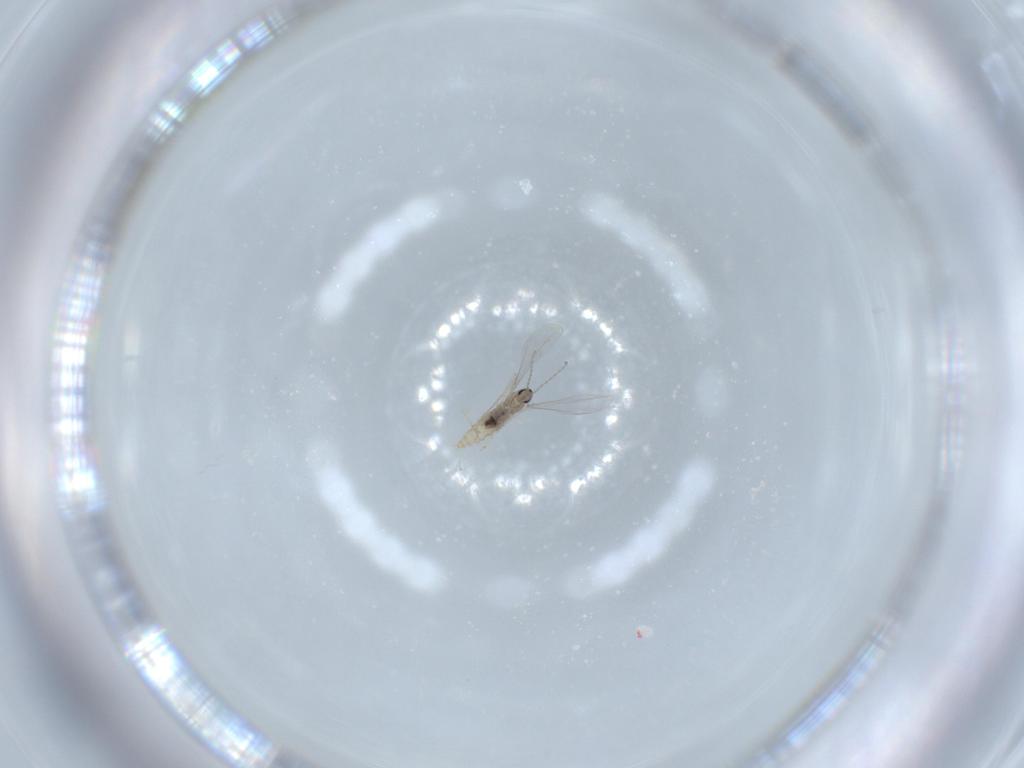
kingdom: Animalia
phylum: Arthropoda
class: Insecta
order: Diptera
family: Cecidomyiidae
